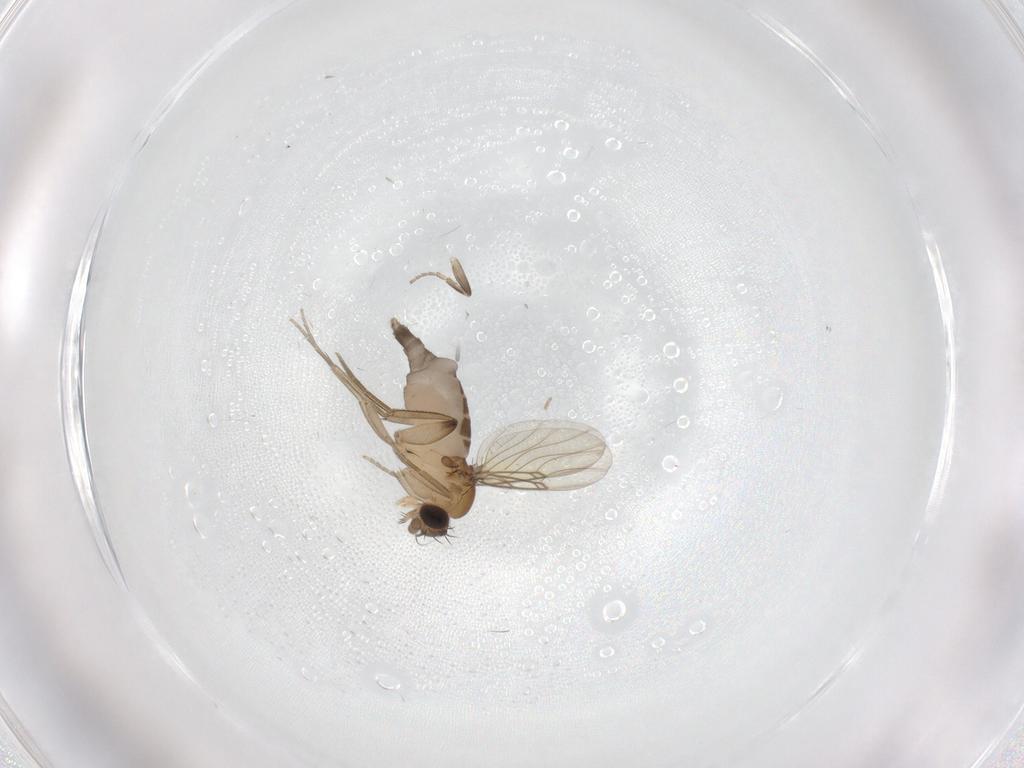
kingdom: Animalia
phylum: Arthropoda
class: Insecta
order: Diptera
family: Phoridae
